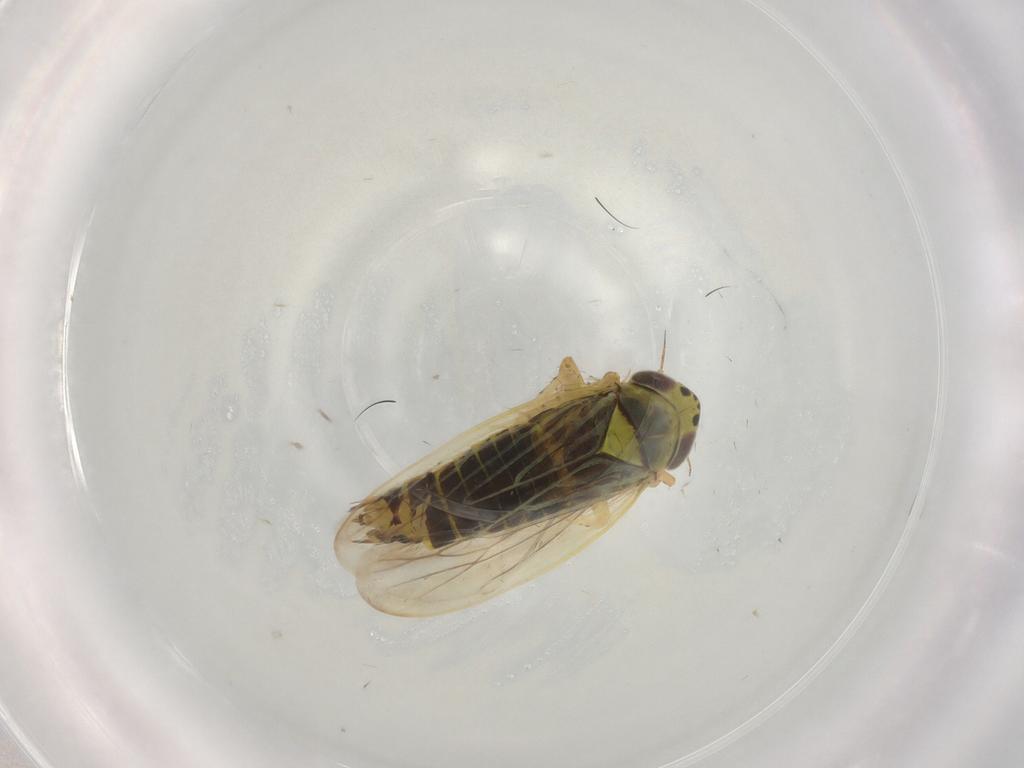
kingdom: Animalia
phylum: Arthropoda
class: Insecta
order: Hemiptera
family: Cicadellidae
